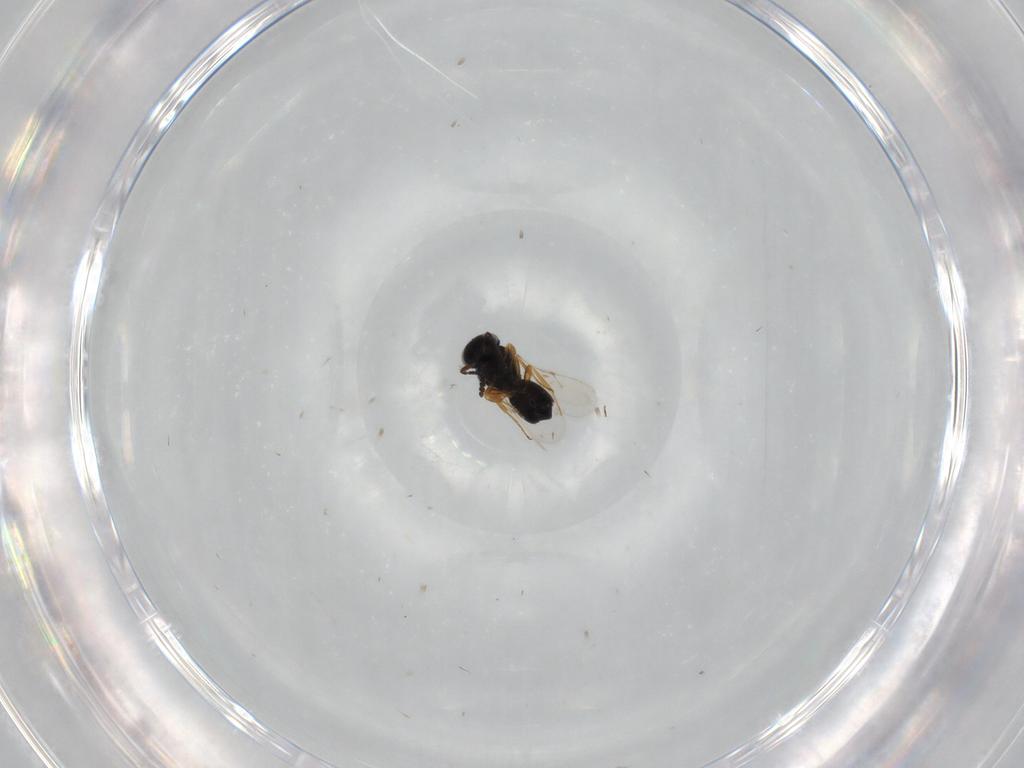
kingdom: Animalia
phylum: Arthropoda
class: Insecta
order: Hymenoptera
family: Scelionidae
